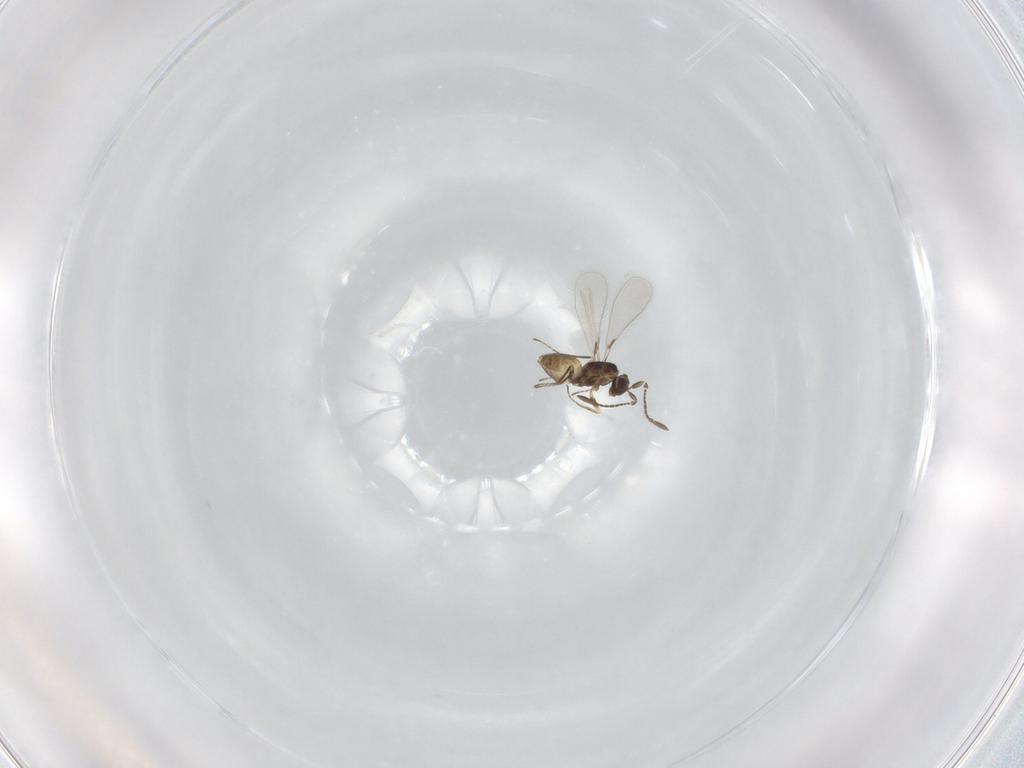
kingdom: Animalia
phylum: Arthropoda
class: Insecta
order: Hymenoptera
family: Mymaridae
